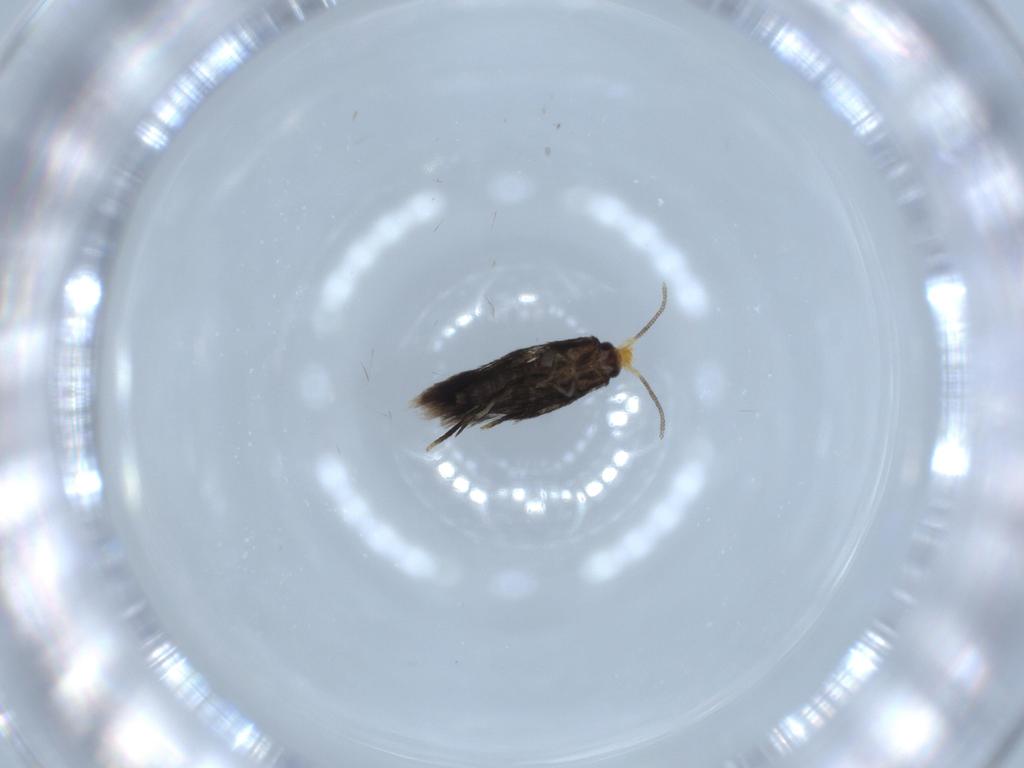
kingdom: Animalia
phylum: Arthropoda
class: Insecta
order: Lepidoptera
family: Nepticulidae
